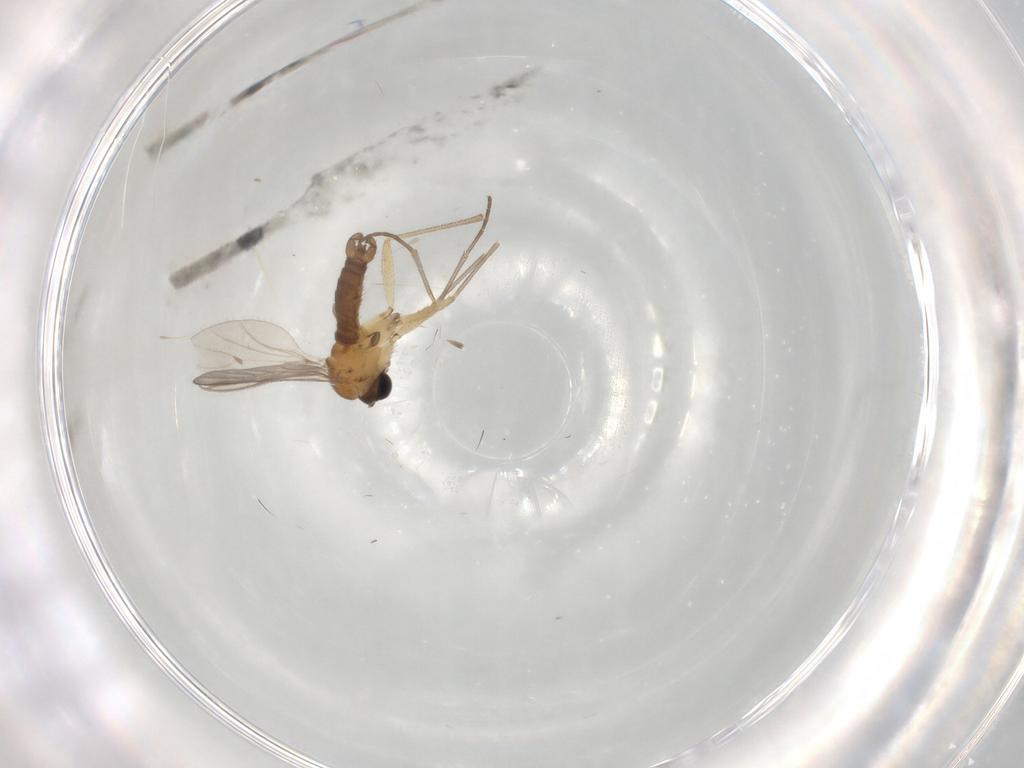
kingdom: Animalia
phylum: Arthropoda
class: Insecta
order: Diptera
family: Sciaridae
